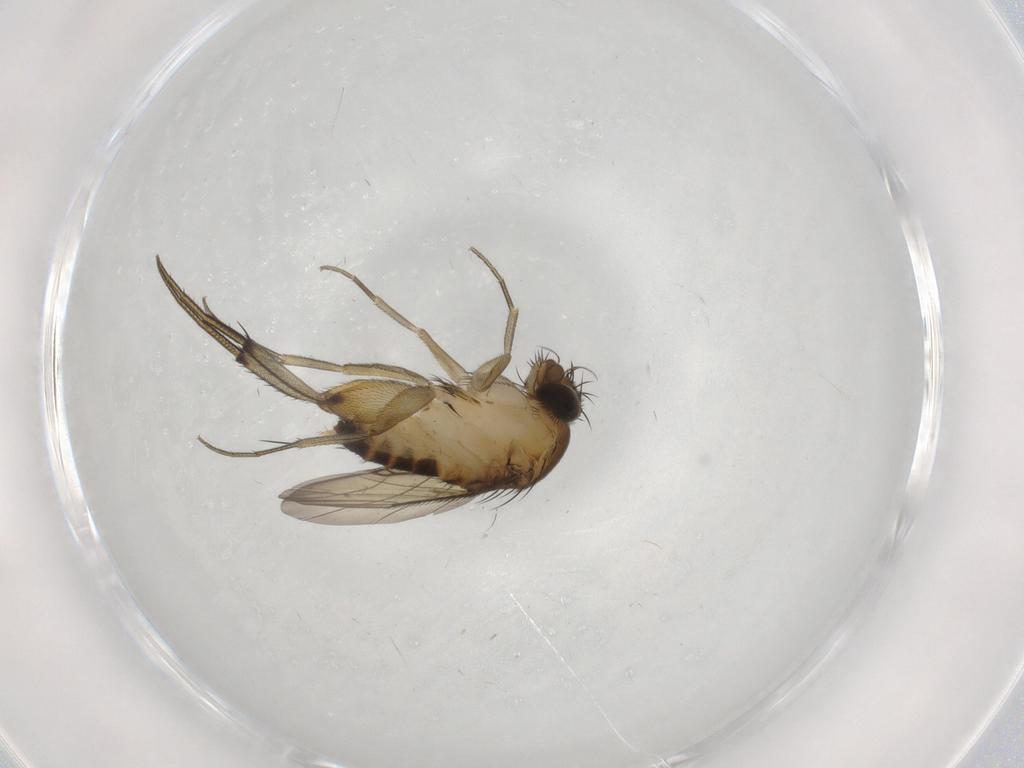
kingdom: Animalia
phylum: Arthropoda
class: Insecta
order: Diptera
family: Phoridae
